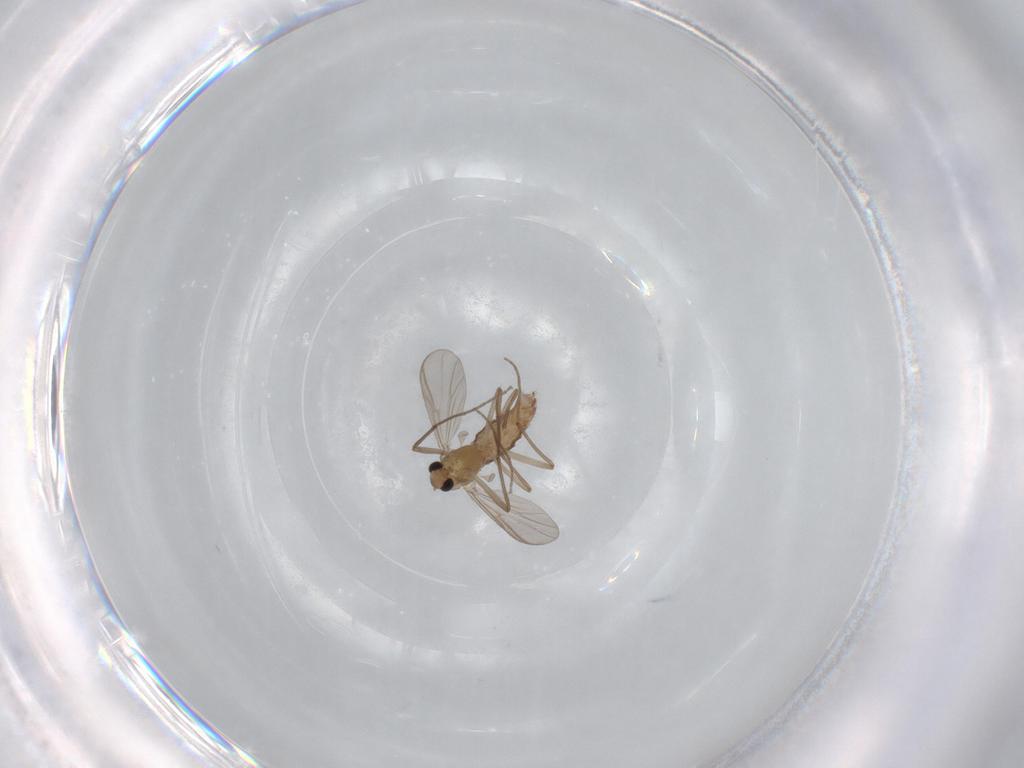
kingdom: Animalia
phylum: Arthropoda
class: Insecta
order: Diptera
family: Chironomidae
